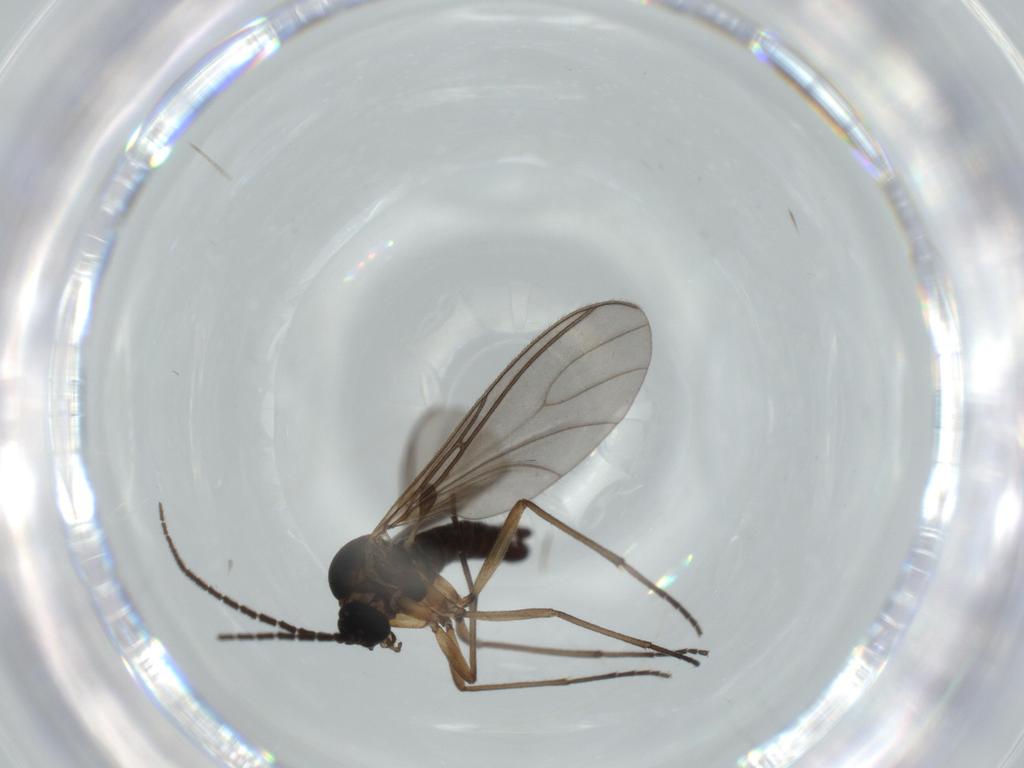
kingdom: Animalia
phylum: Arthropoda
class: Insecta
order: Diptera
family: Sciaridae
